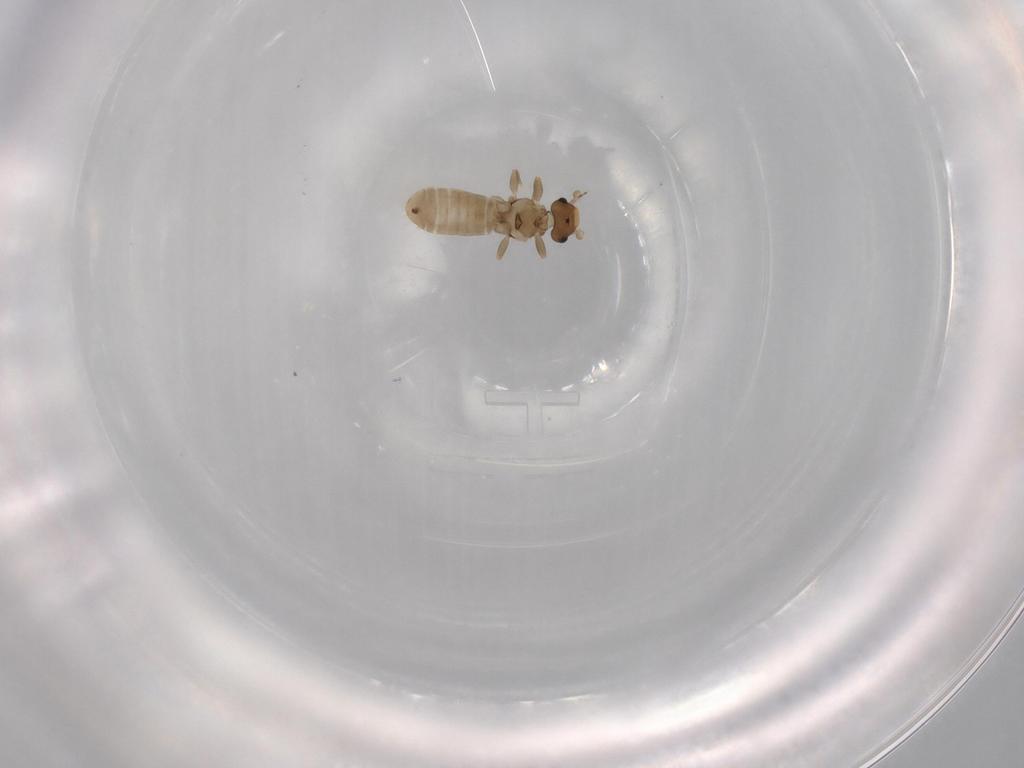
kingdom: Animalia
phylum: Arthropoda
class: Insecta
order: Psocodea
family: Liposcelididae
